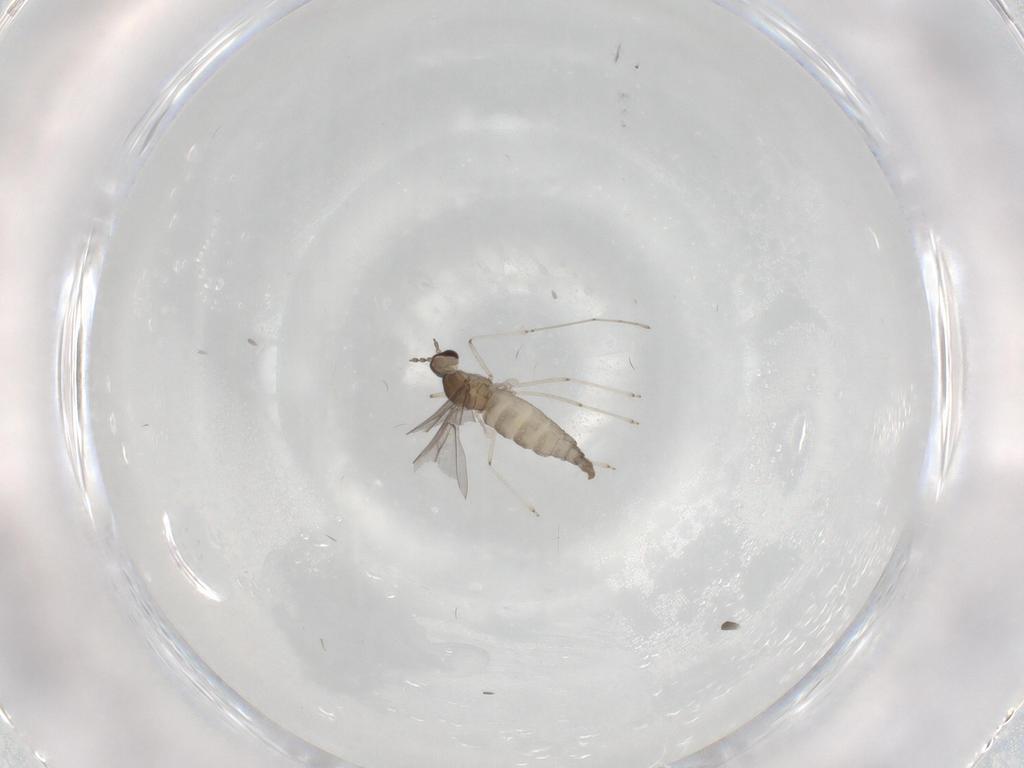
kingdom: Animalia
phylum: Arthropoda
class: Insecta
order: Diptera
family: Cecidomyiidae
